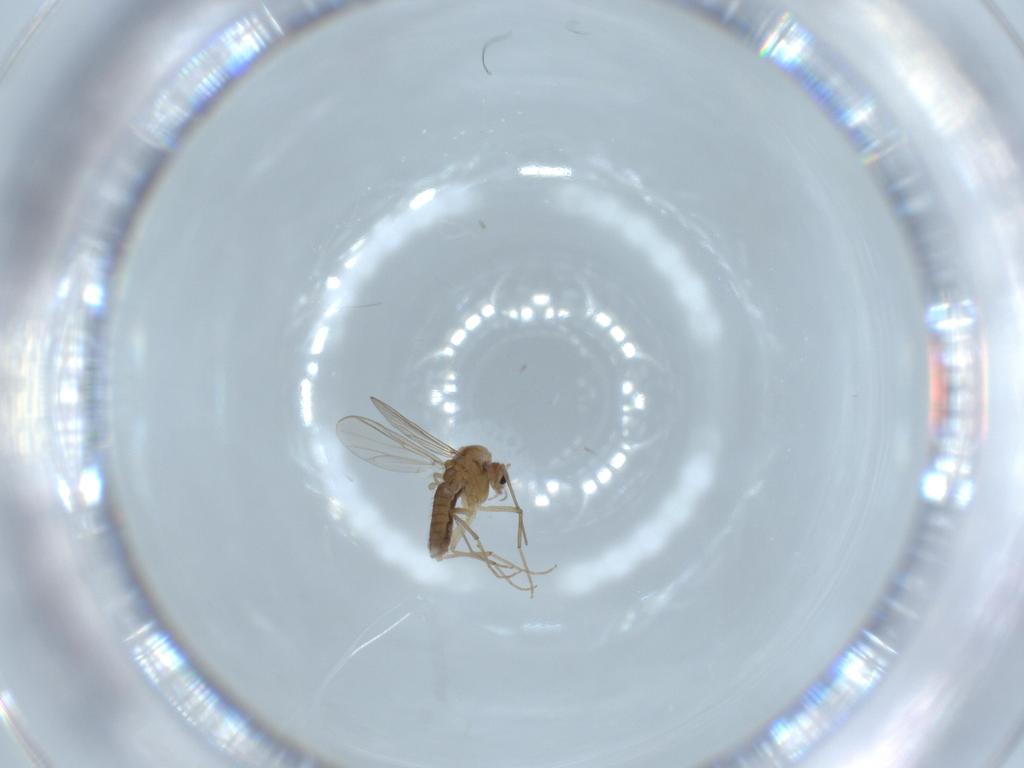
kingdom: Animalia
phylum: Arthropoda
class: Insecta
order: Diptera
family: Chironomidae
